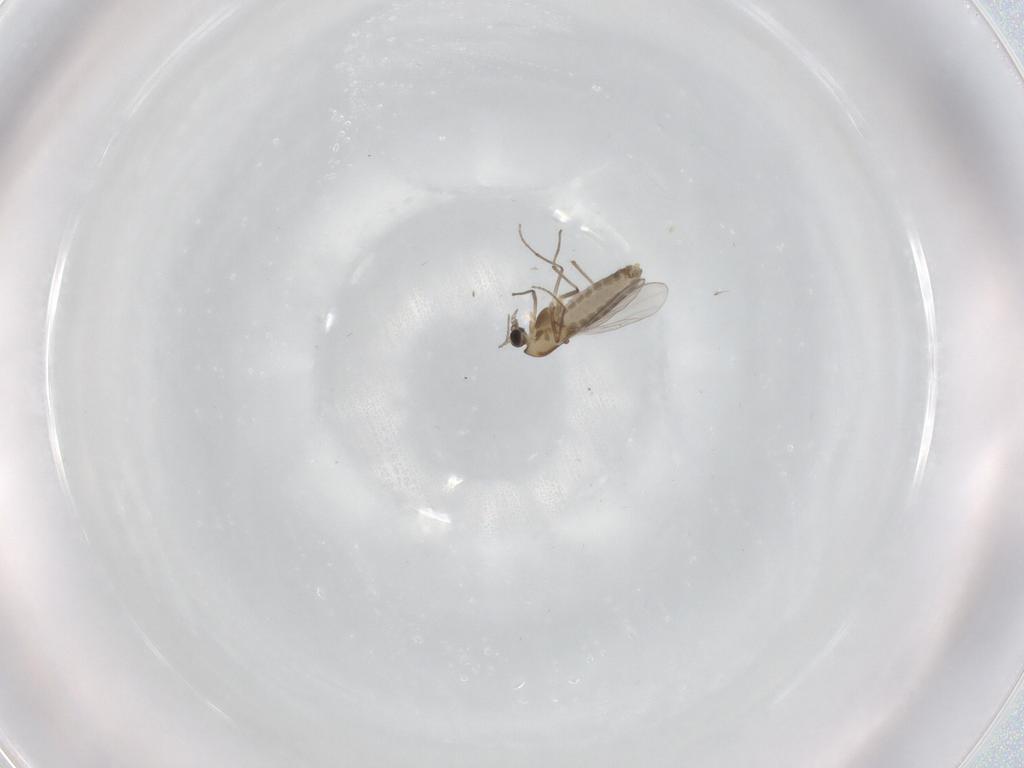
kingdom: Animalia
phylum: Arthropoda
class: Insecta
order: Diptera
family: Chironomidae
